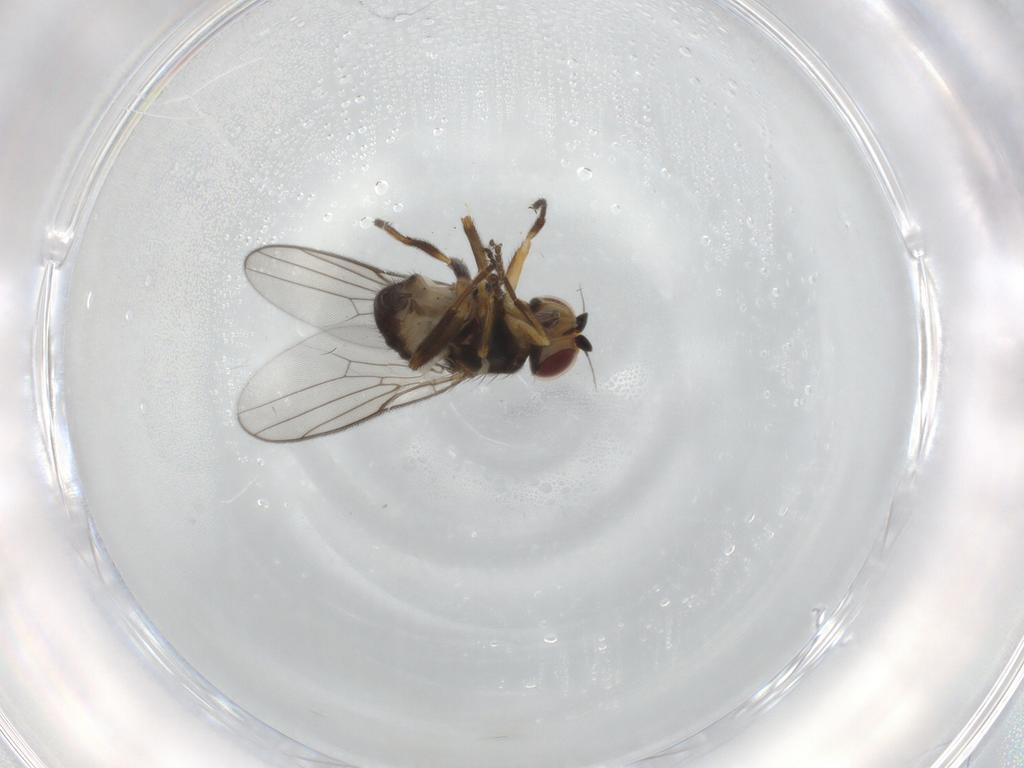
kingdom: Animalia
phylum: Arthropoda
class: Insecta
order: Diptera
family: Chloropidae
